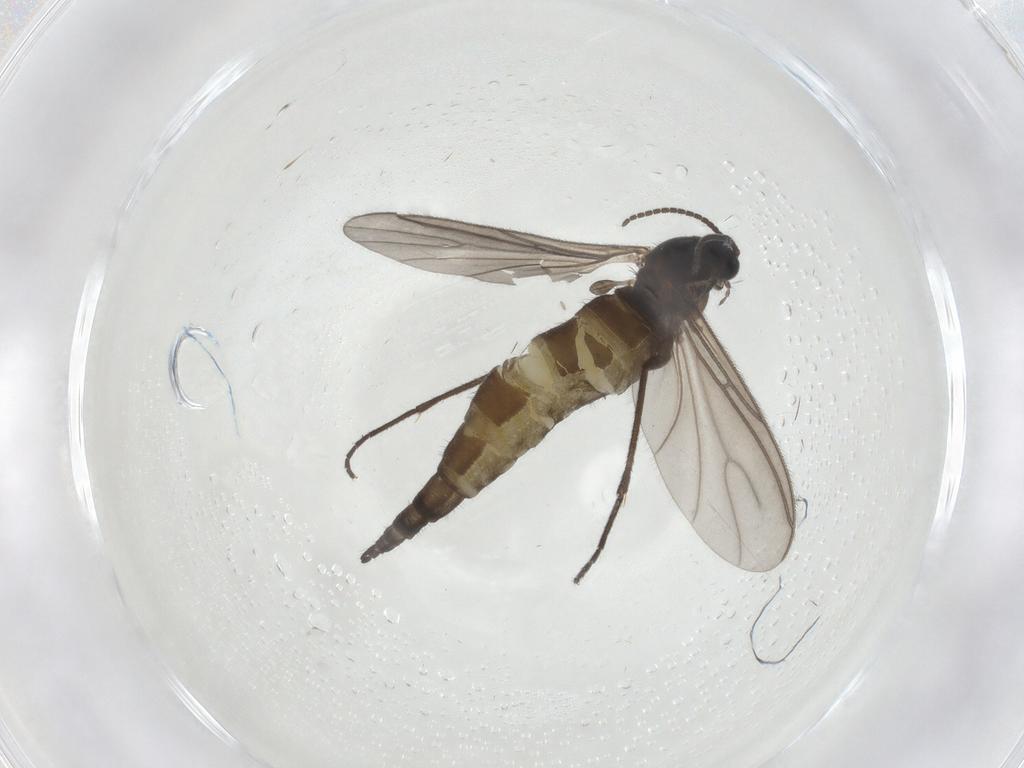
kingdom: Animalia
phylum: Arthropoda
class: Insecta
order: Diptera
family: Sciaridae
